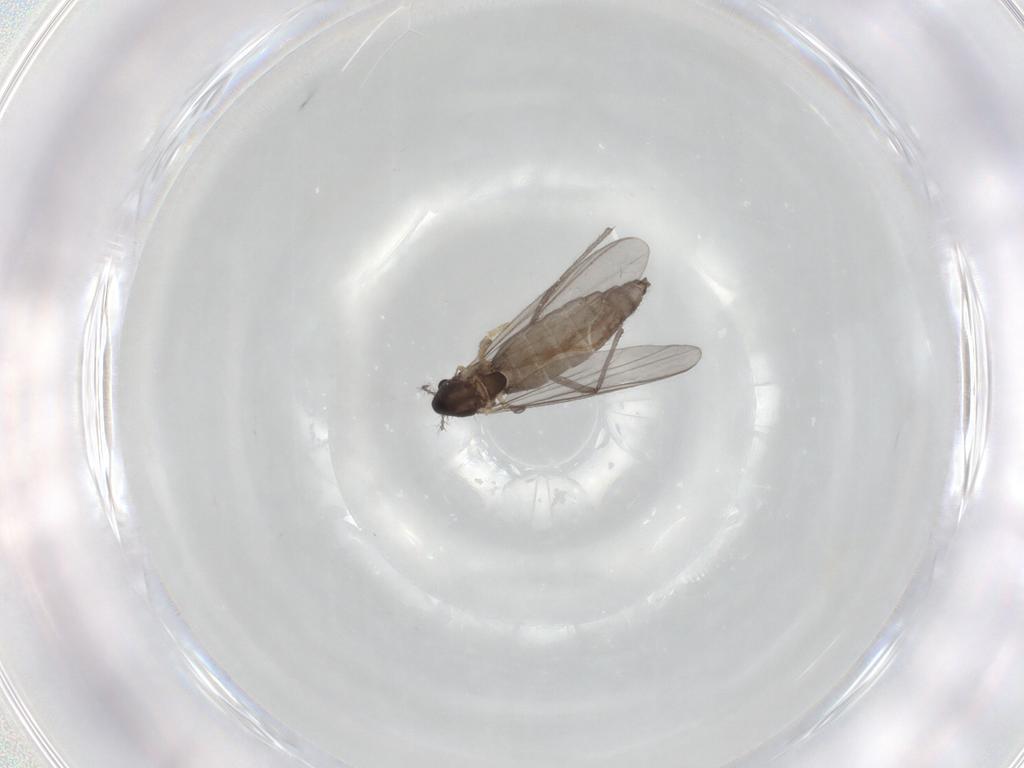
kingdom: Animalia
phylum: Arthropoda
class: Insecta
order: Diptera
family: Chironomidae
